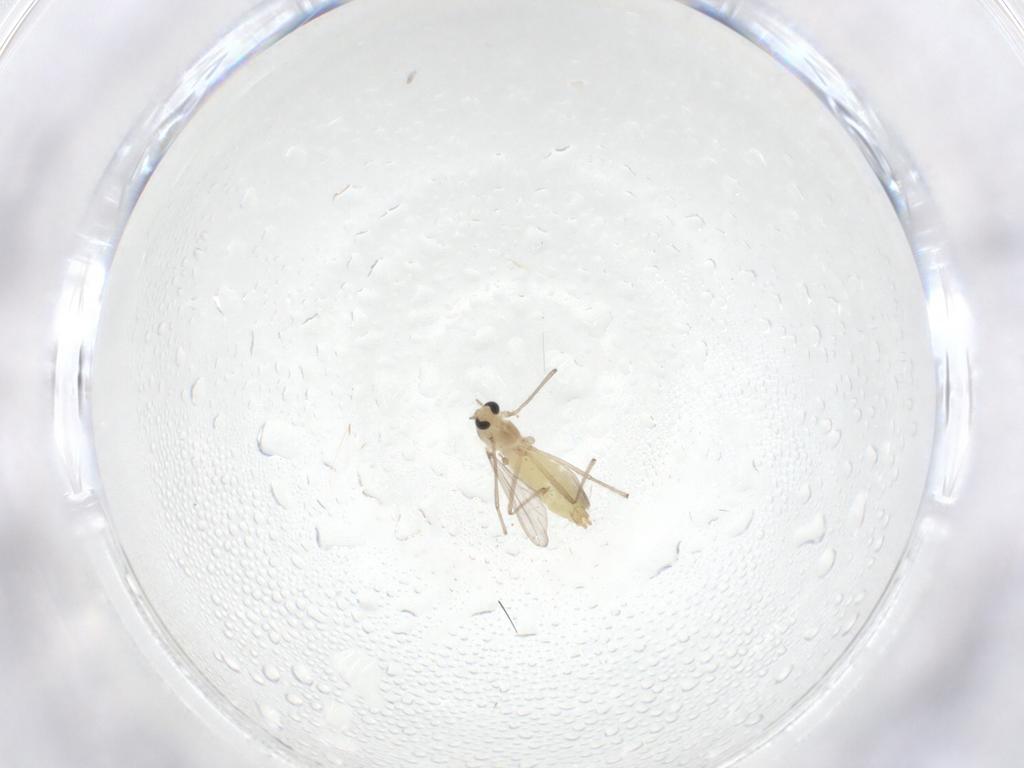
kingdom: Animalia
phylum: Arthropoda
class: Insecta
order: Diptera
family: Chironomidae
